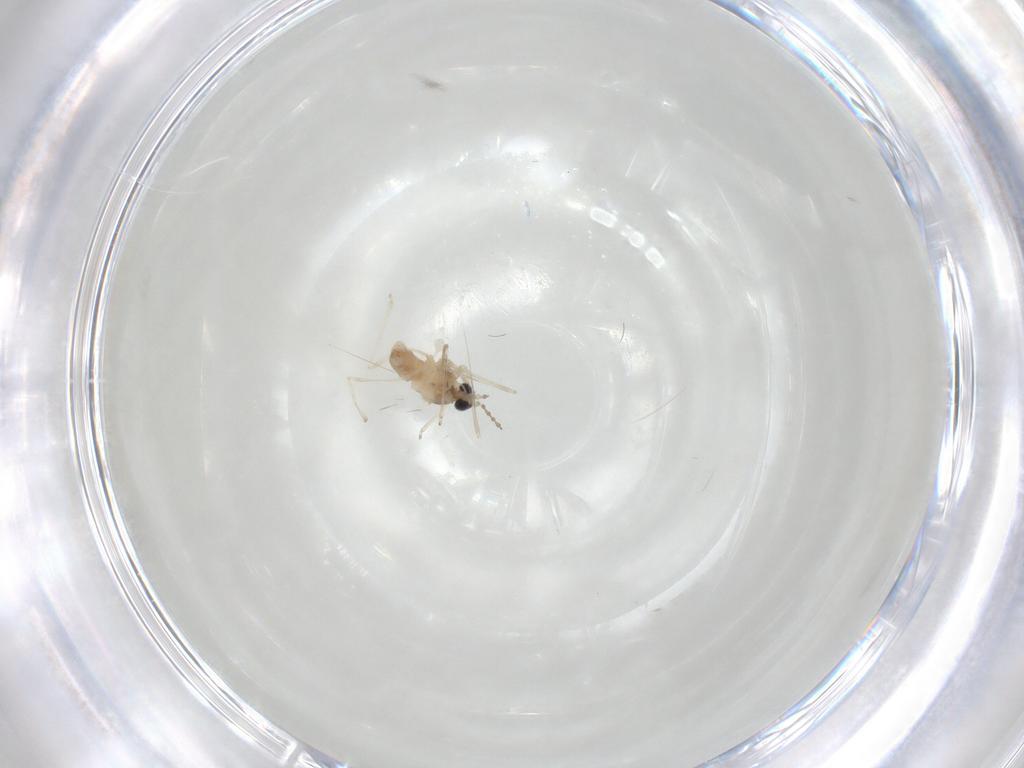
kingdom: Animalia
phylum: Arthropoda
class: Insecta
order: Diptera
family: Cecidomyiidae
